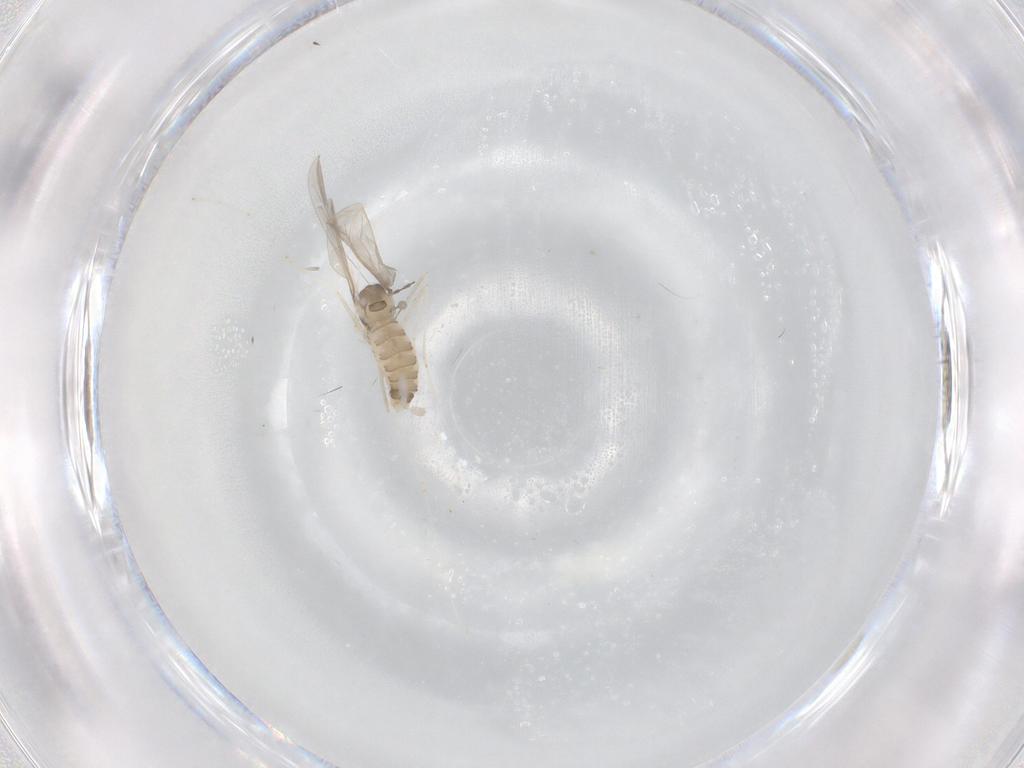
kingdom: Animalia
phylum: Arthropoda
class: Insecta
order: Diptera
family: Cecidomyiidae
